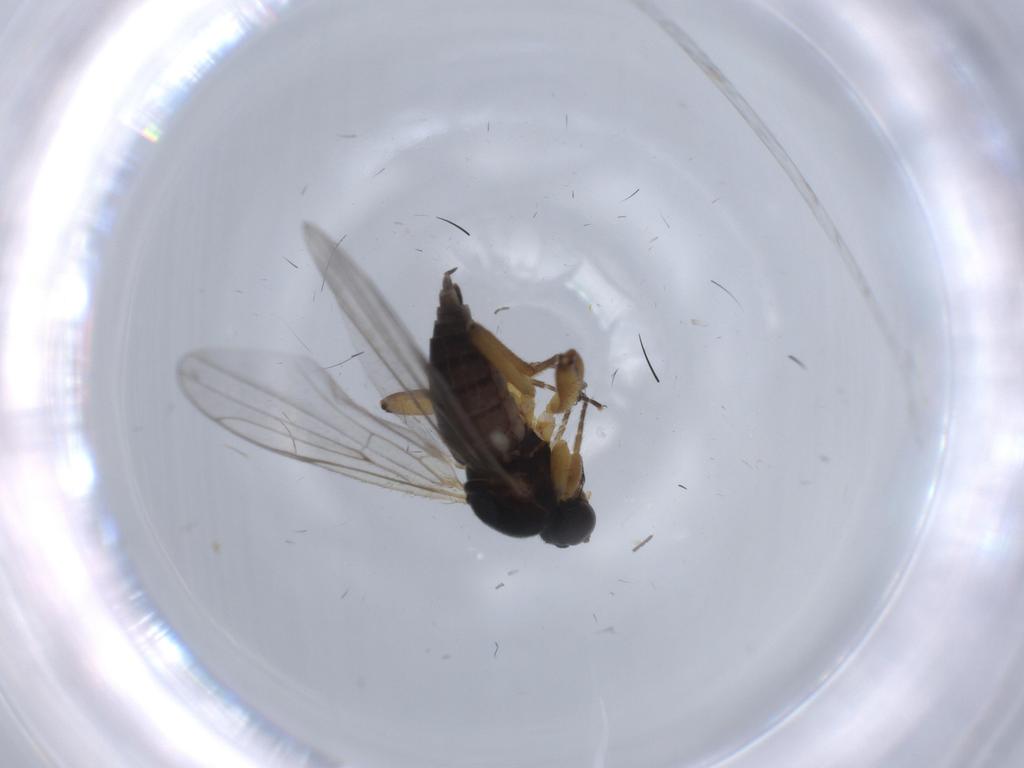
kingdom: Animalia
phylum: Arthropoda
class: Insecta
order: Diptera
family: Hybotidae
